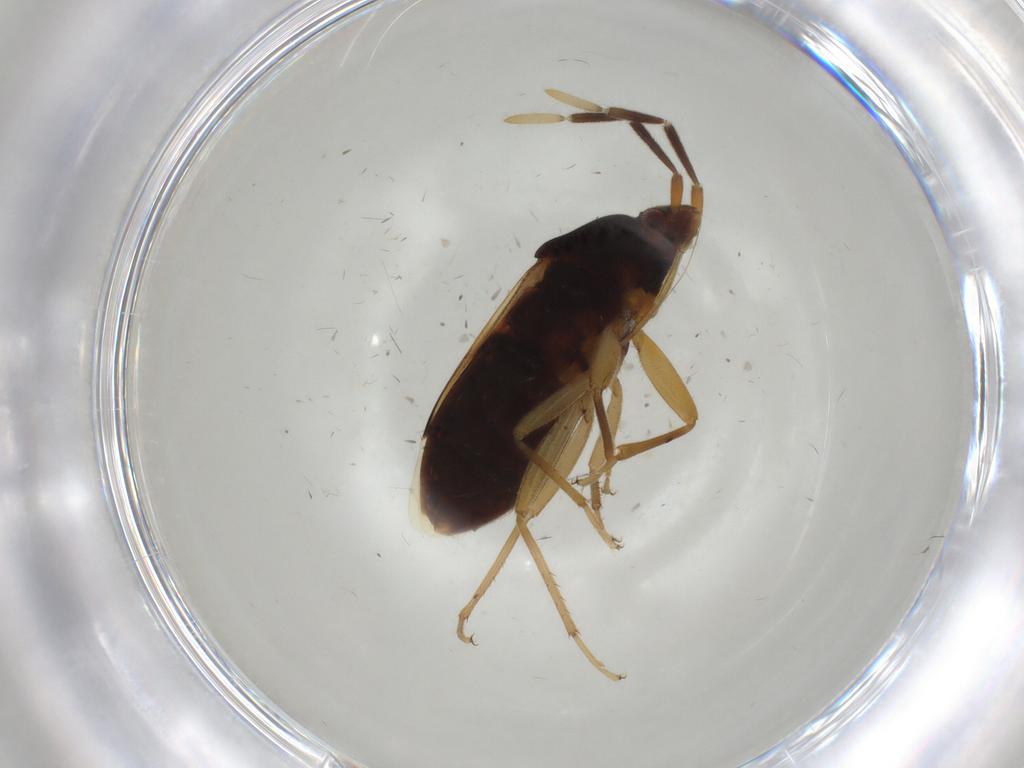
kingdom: Animalia
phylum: Arthropoda
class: Insecta
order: Hemiptera
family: Rhyparochromidae
